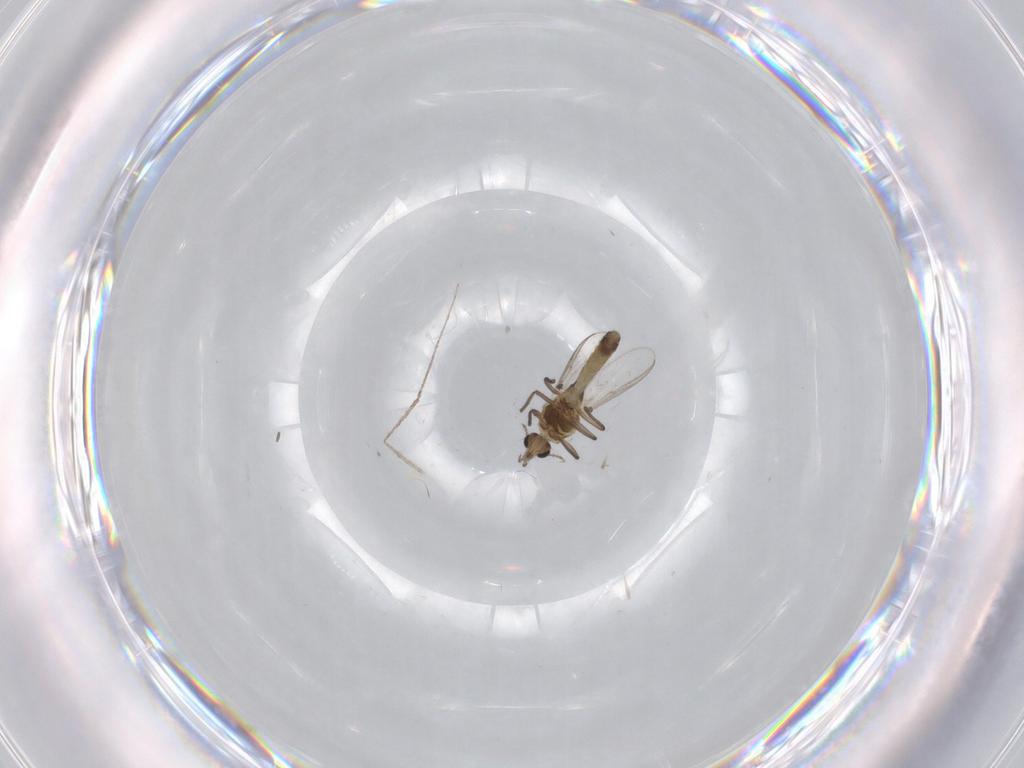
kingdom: Animalia
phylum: Arthropoda
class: Insecta
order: Diptera
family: Chironomidae
